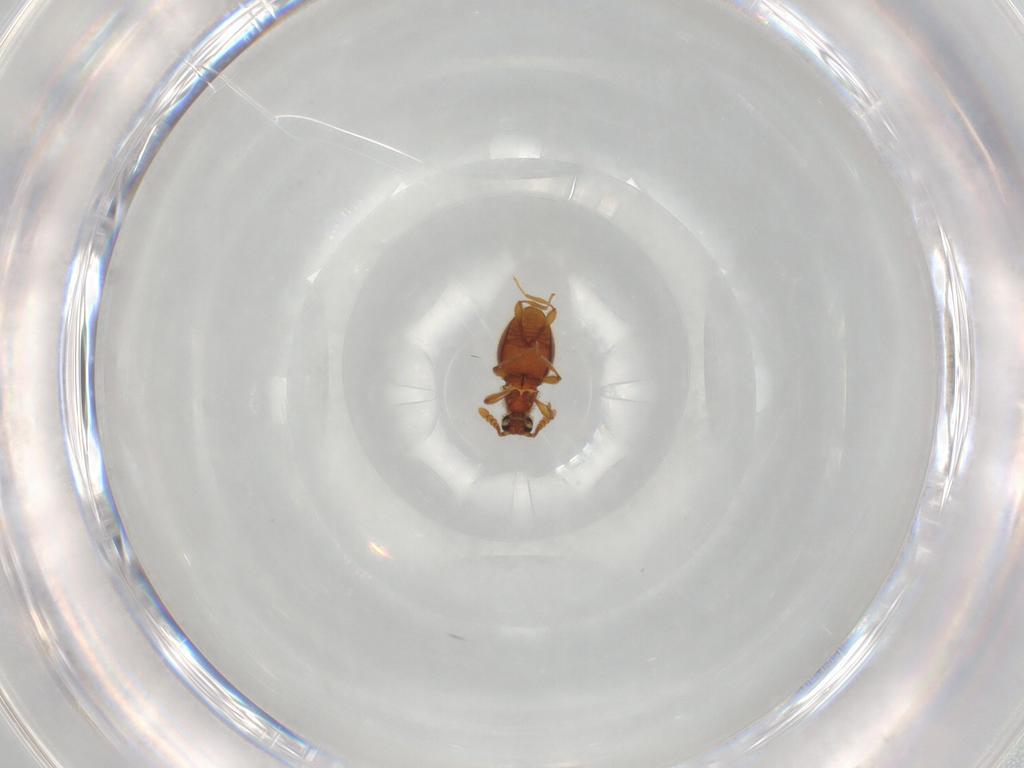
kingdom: Animalia
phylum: Arthropoda
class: Insecta
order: Coleoptera
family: Staphylinidae
